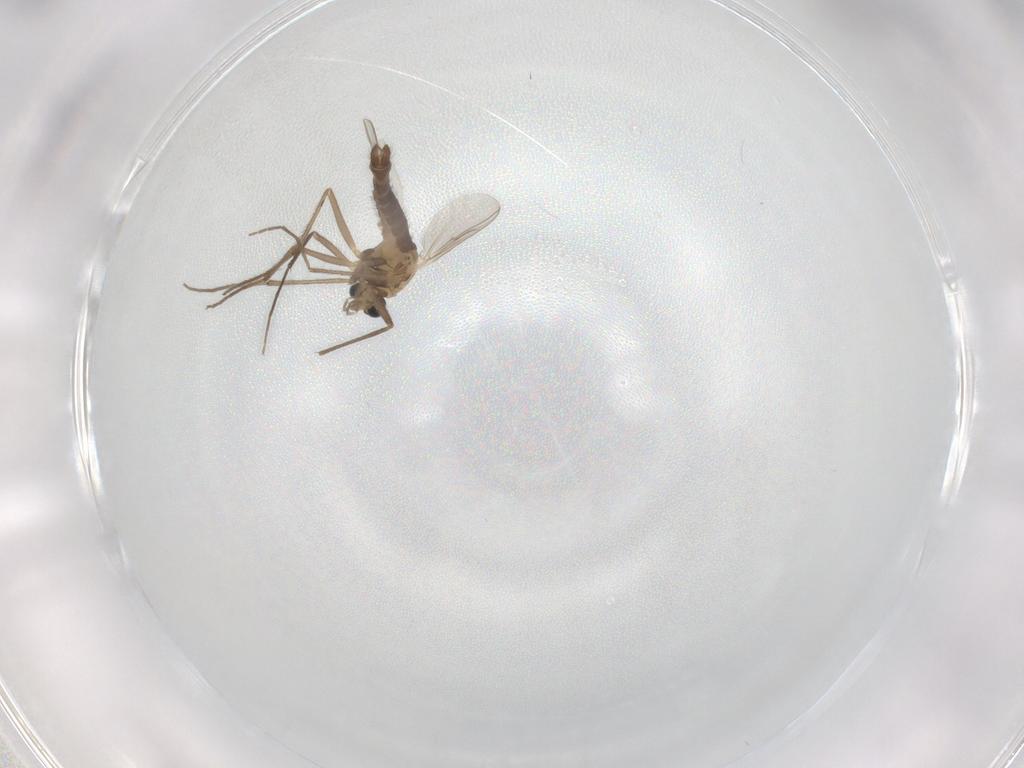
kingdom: Animalia
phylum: Arthropoda
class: Insecta
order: Diptera
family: Chironomidae
